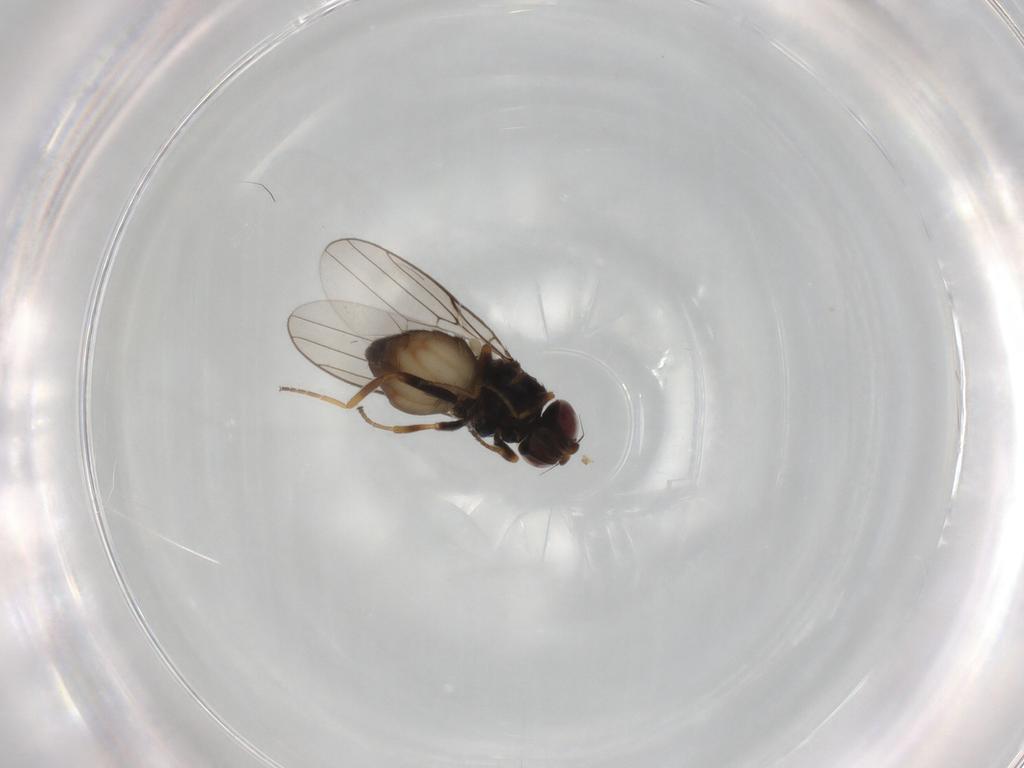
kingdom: Animalia
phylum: Arthropoda
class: Insecta
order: Diptera
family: Chloropidae
